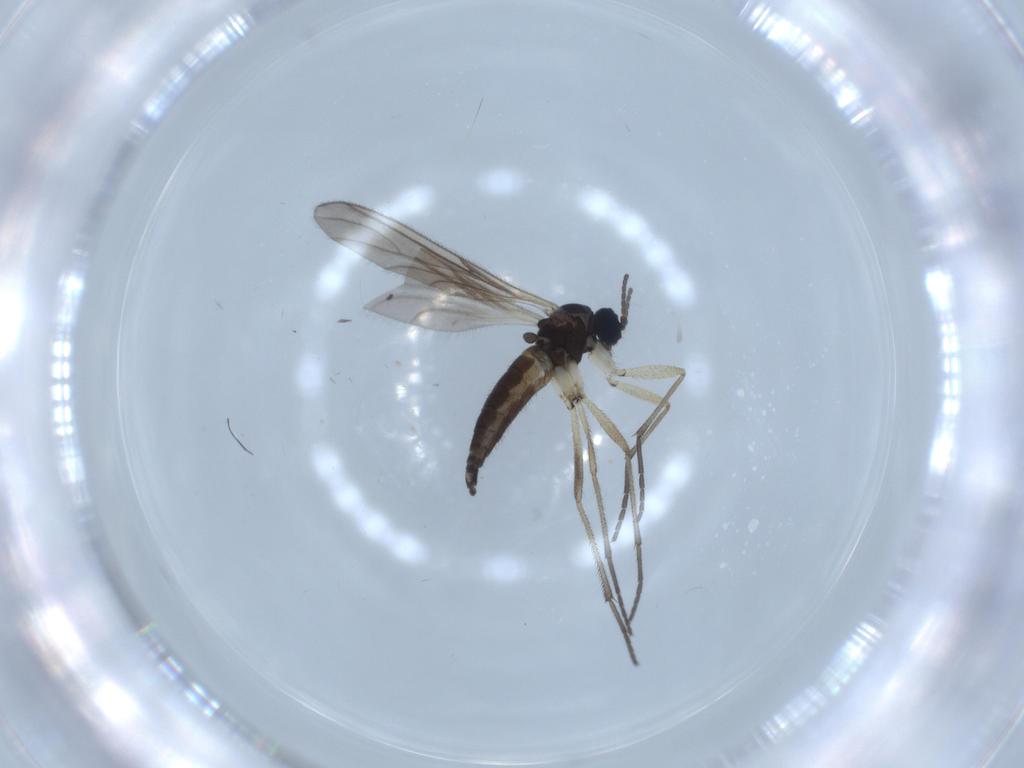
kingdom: Animalia
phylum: Arthropoda
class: Insecta
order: Diptera
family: Sciaridae
